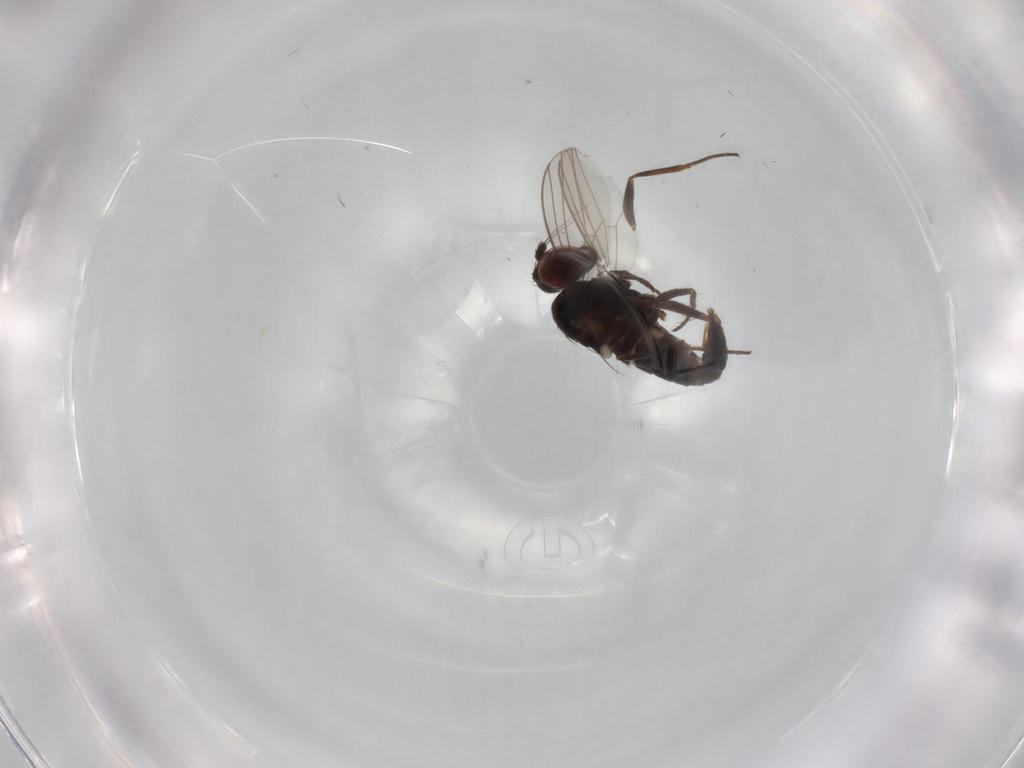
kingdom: Animalia
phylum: Arthropoda
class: Insecta
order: Diptera
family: Dolichopodidae
